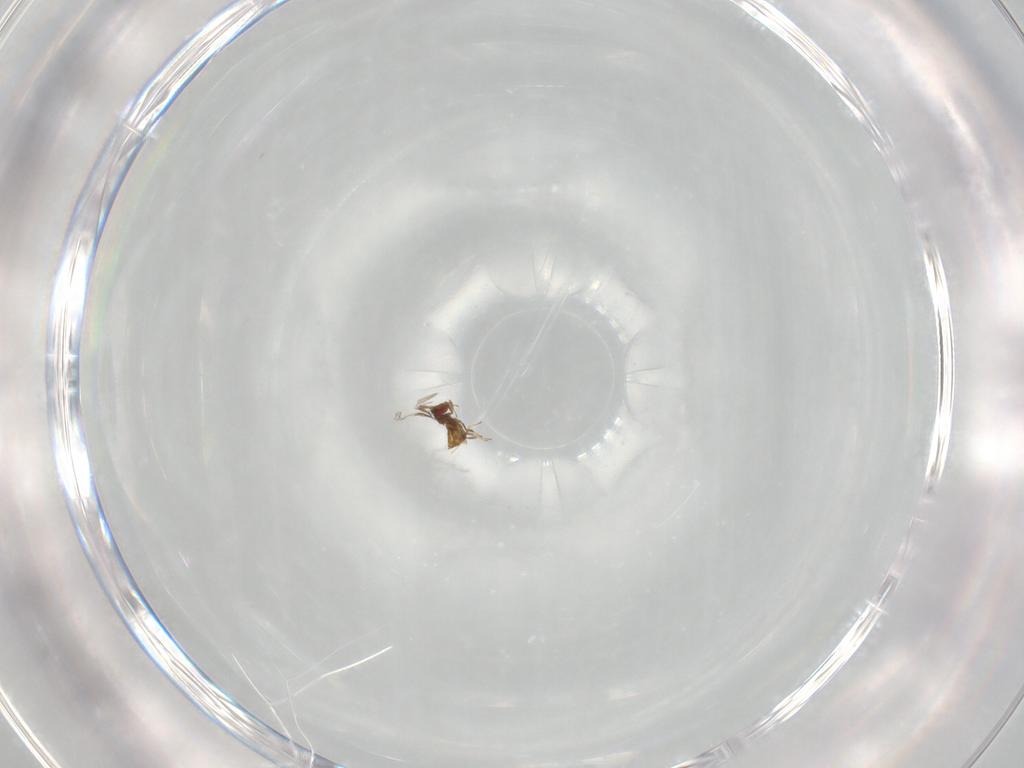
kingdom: Animalia
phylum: Arthropoda
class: Insecta
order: Hymenoptera
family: Trichogrammatidae
